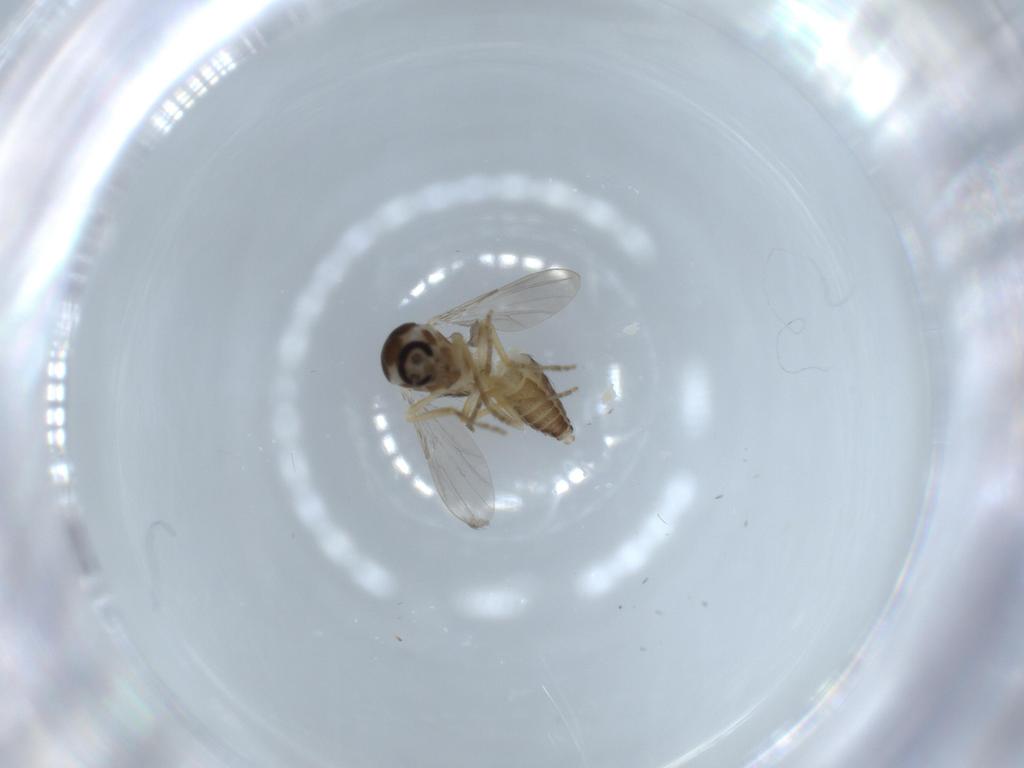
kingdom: Animalia
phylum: Arthropoda
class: Insecta
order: Diptera
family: Ceratopogonidae
